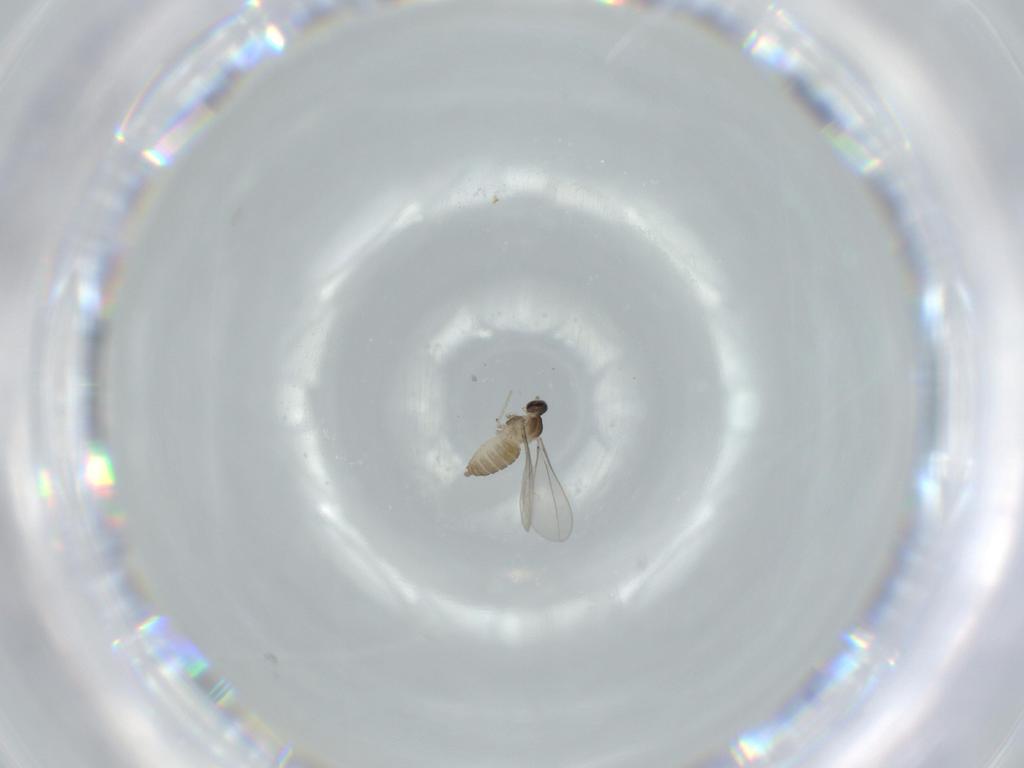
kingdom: Animalia
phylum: Arthropoda
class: Insecta
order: Diptera
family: Cecidomyiidae
